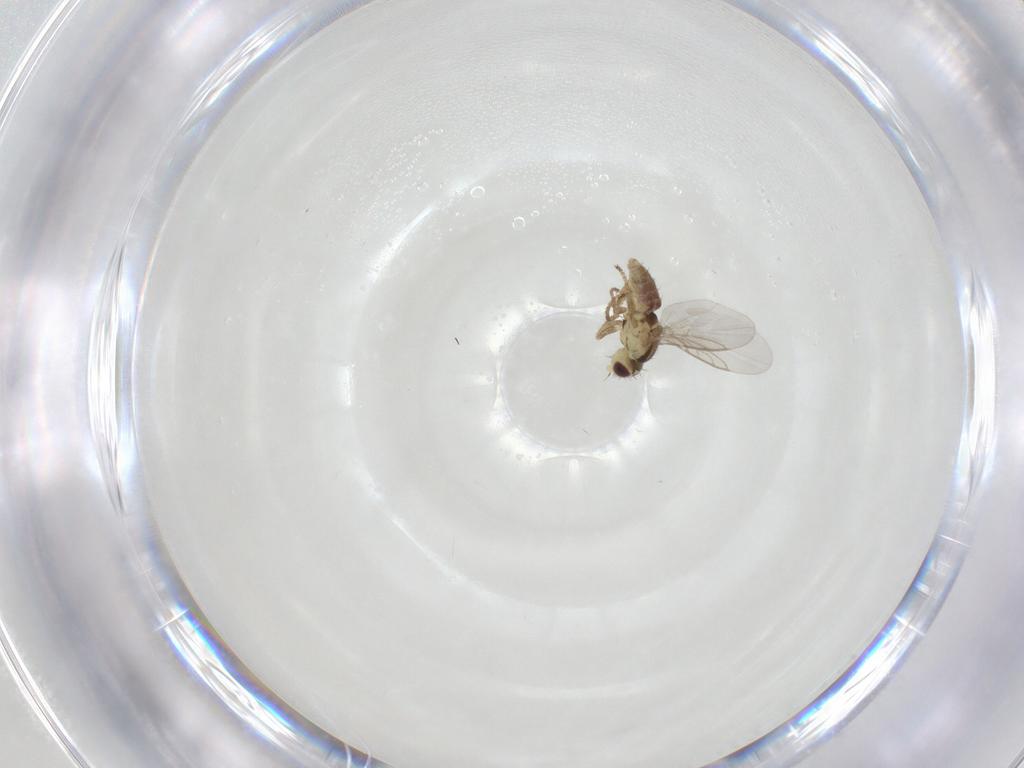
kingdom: Animalia
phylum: Arthropoda
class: Insecta
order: Diptera
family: Agromyzidae
